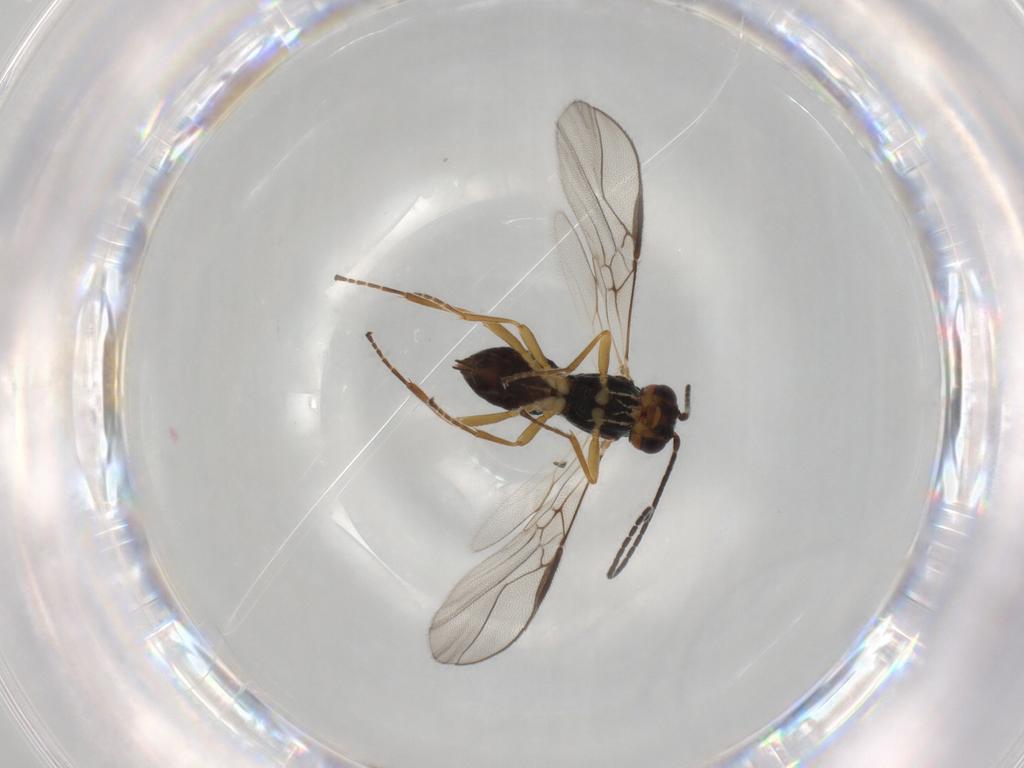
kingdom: Animalia
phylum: Arthropoda
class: Insecta
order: Hymenoptera
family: Braconidae
